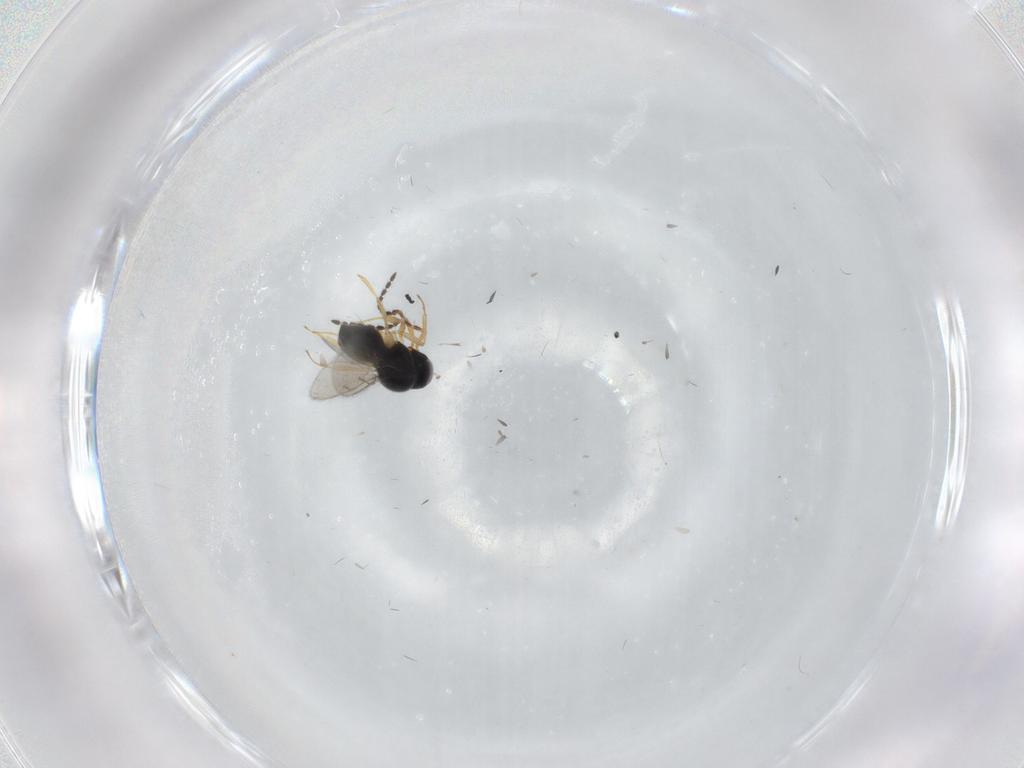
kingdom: Animalia
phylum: Arthropoda
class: Insecta
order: Hymenoptera
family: Scelionidae
